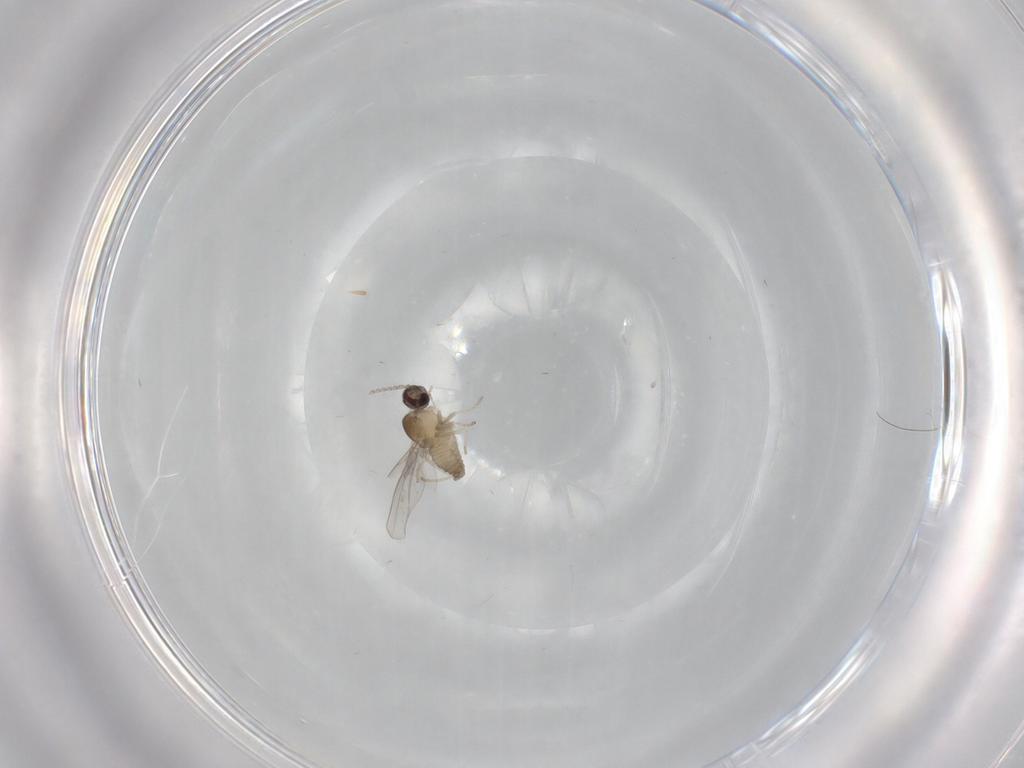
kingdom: Animalia
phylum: Arthropoda
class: Insecta
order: Diptera
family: Cecidomyiidae
